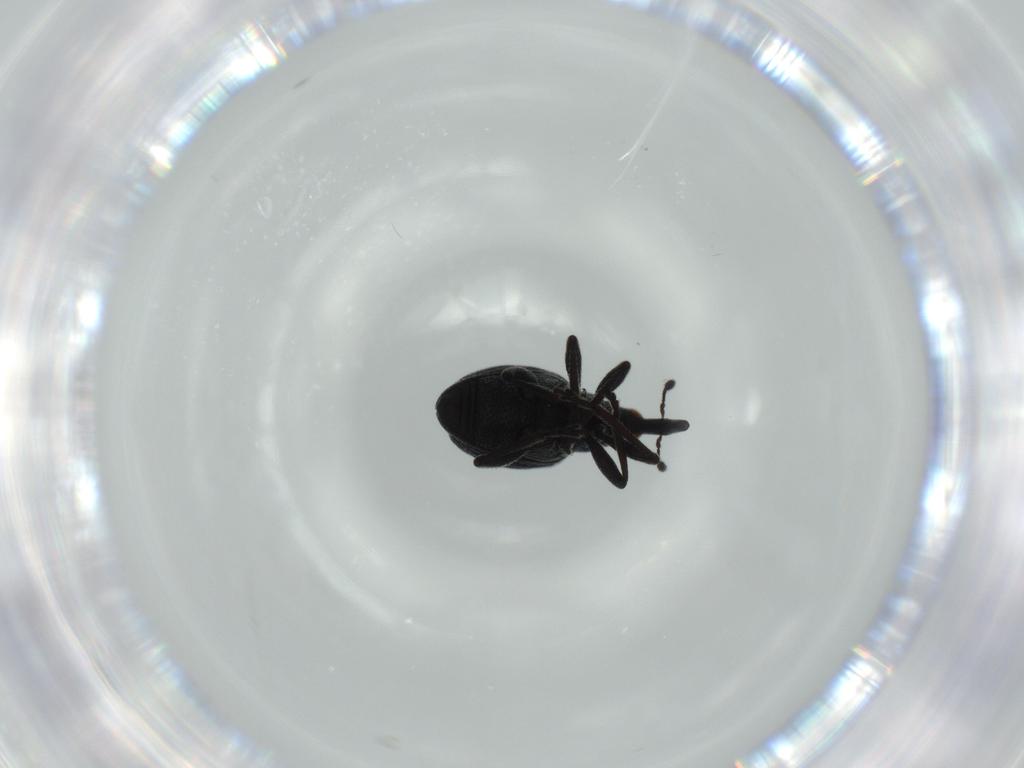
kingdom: Animalia
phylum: Arthropoda
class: Insecta
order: Coleoptera
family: Brentidae
